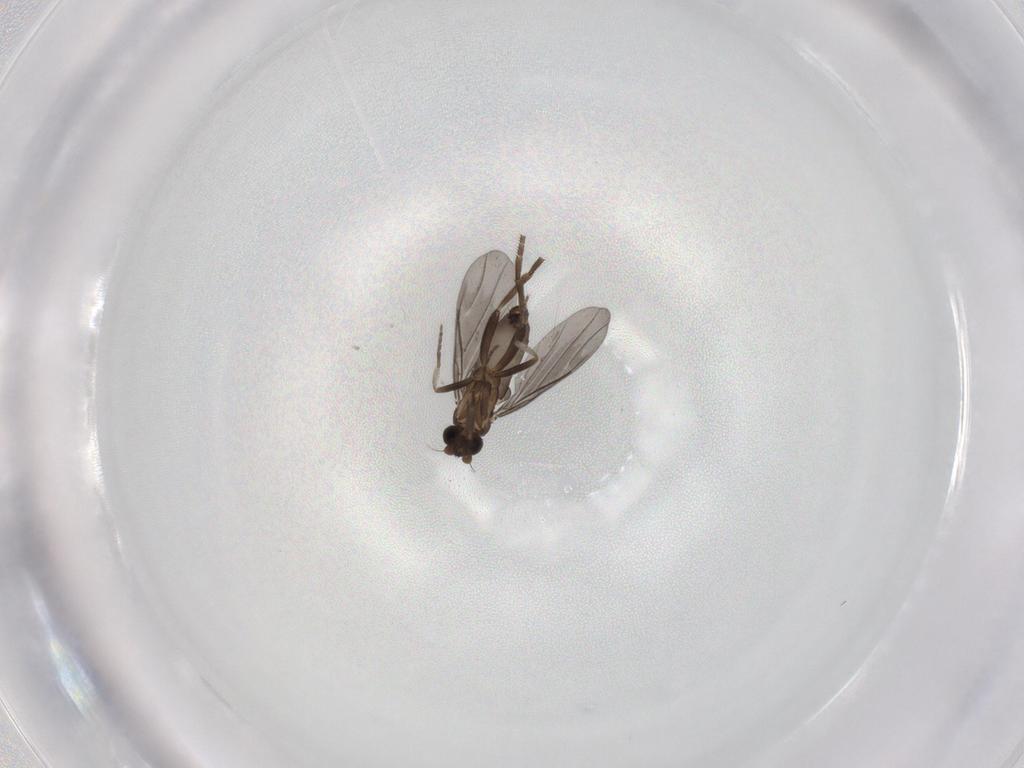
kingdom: Animalia
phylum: Arthropoda
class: Insecta
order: Diptera
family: Phoridae
